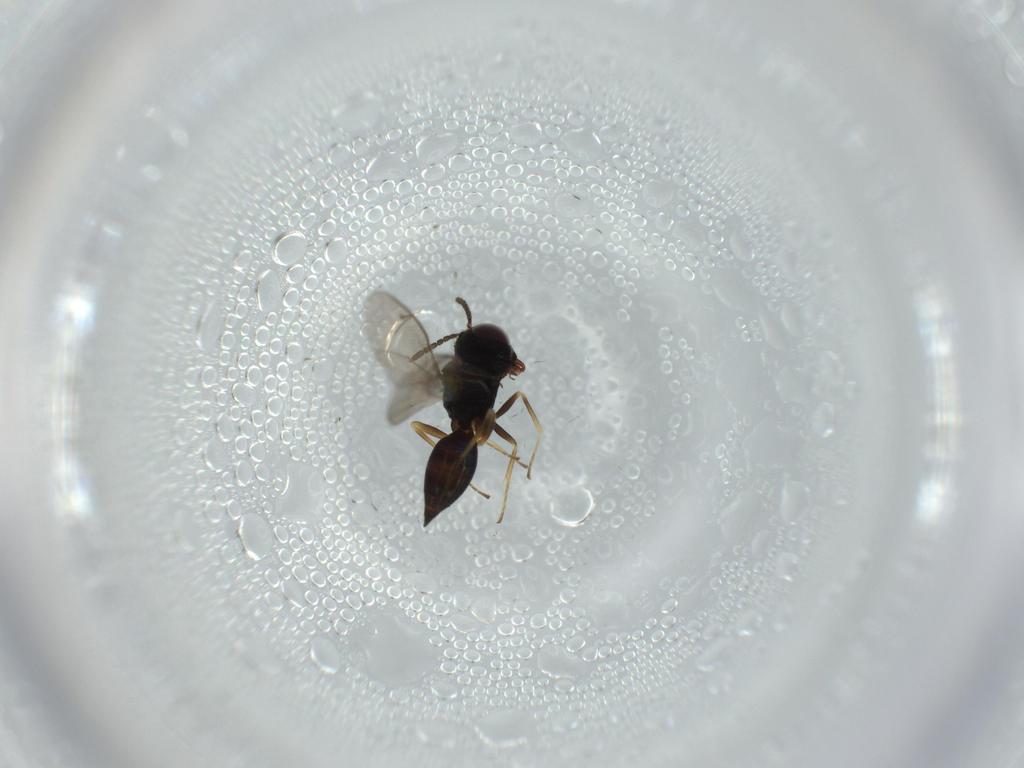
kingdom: Animalia
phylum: Arthropoda
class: Insecta
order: Hymenoptera
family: Pteromalidae
